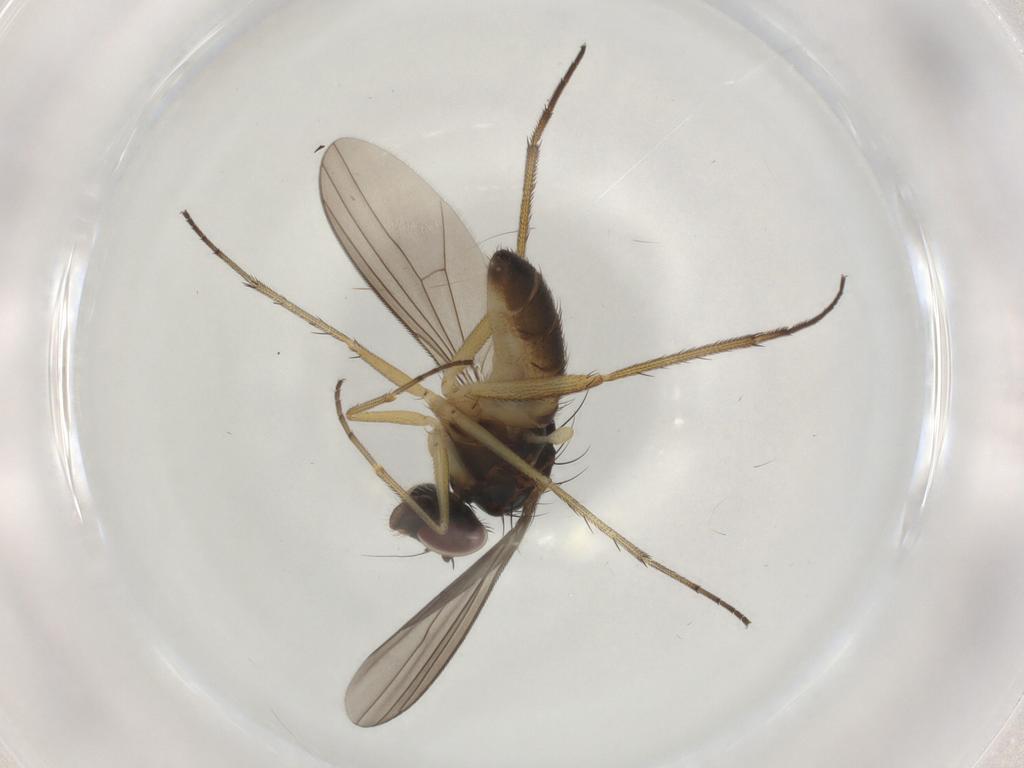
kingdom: Animalia
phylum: Arthropoda
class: Insecta
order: Diptera
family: Dolichopodidae
